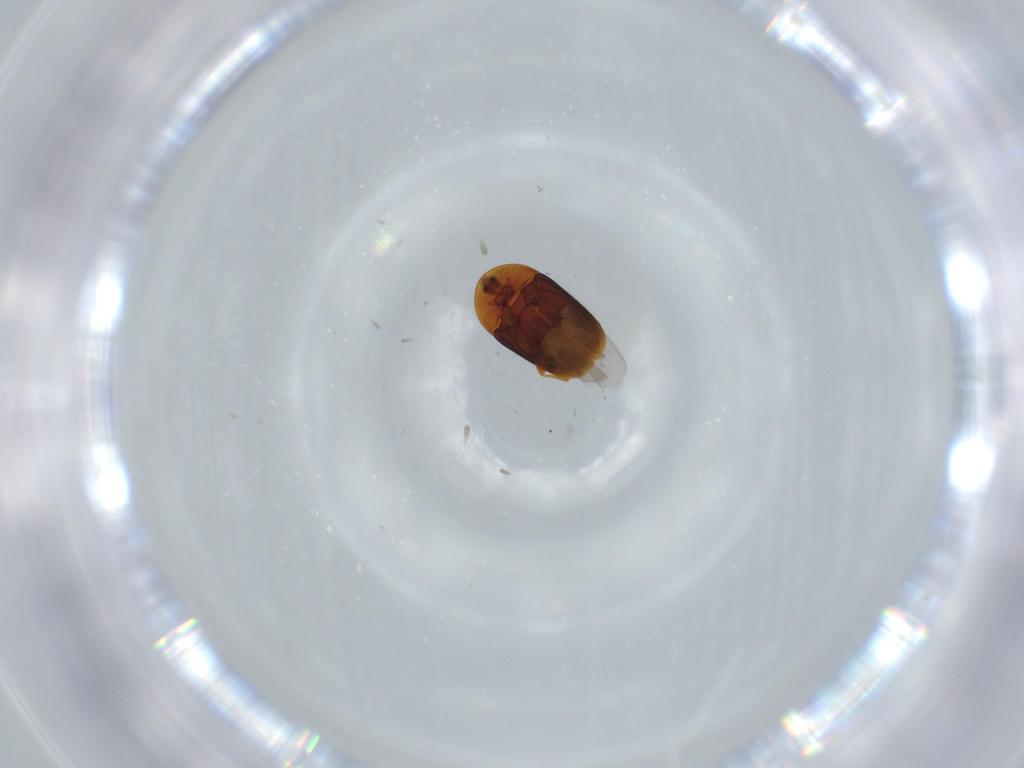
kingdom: Animalia
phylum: Arthropoda
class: Insecta
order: Coleoptera
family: Corylophidae
